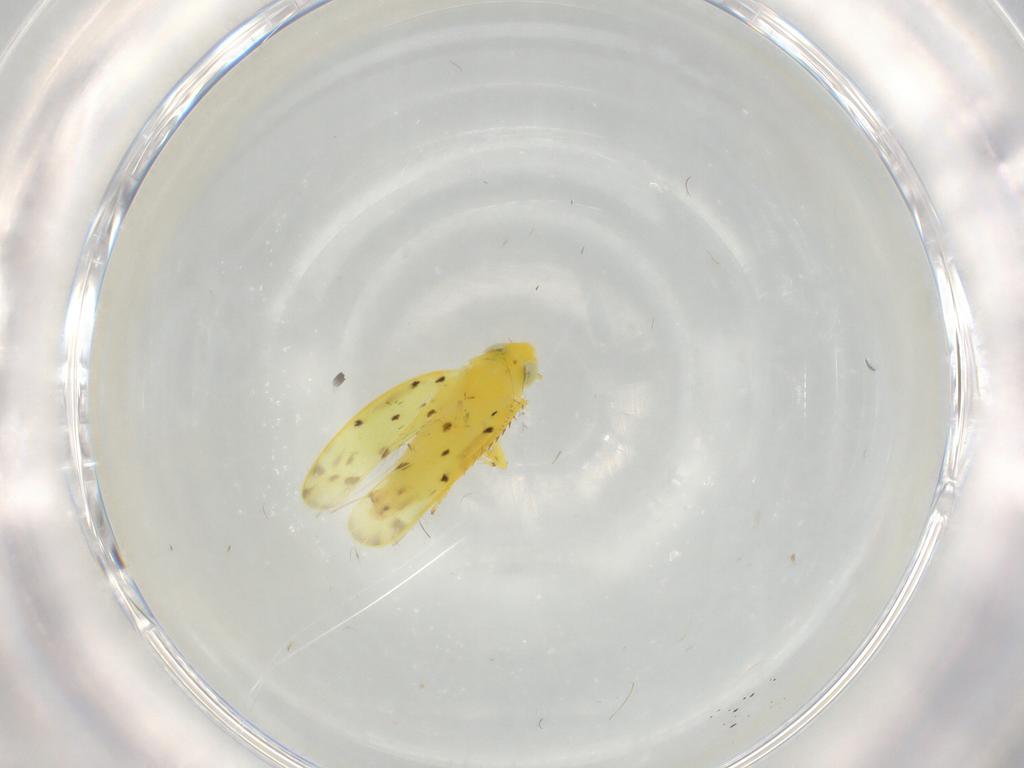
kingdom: Animalia
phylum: Arthropoda
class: Insecta
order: Hemiptera
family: Cicadellidae
